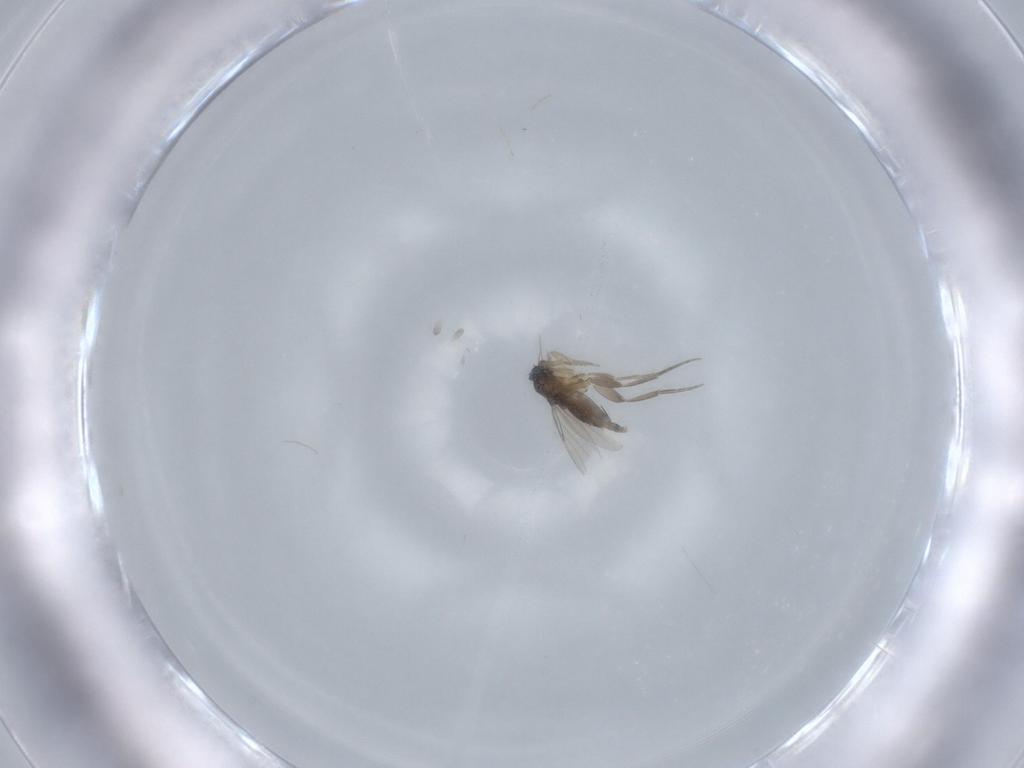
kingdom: Animalia
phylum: Arthropoda
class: Insecta
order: Diptera
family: Phoridae
